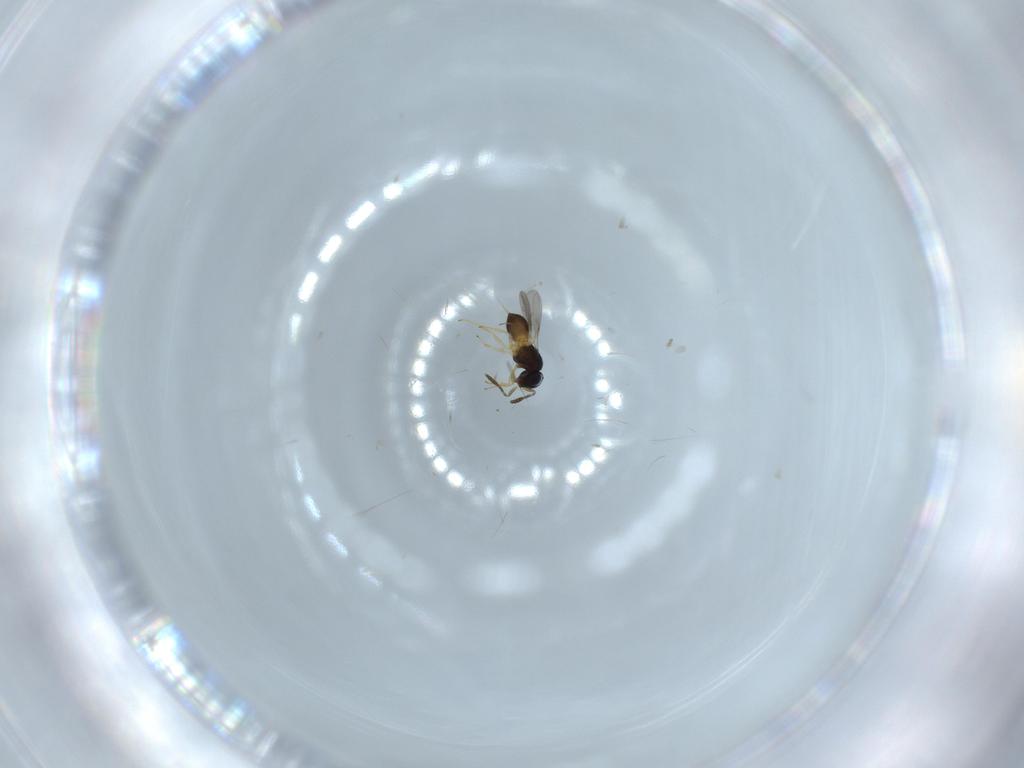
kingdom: Animalia
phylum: Arthropoda
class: Insecta
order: Hymenoptera
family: Scelionidae
